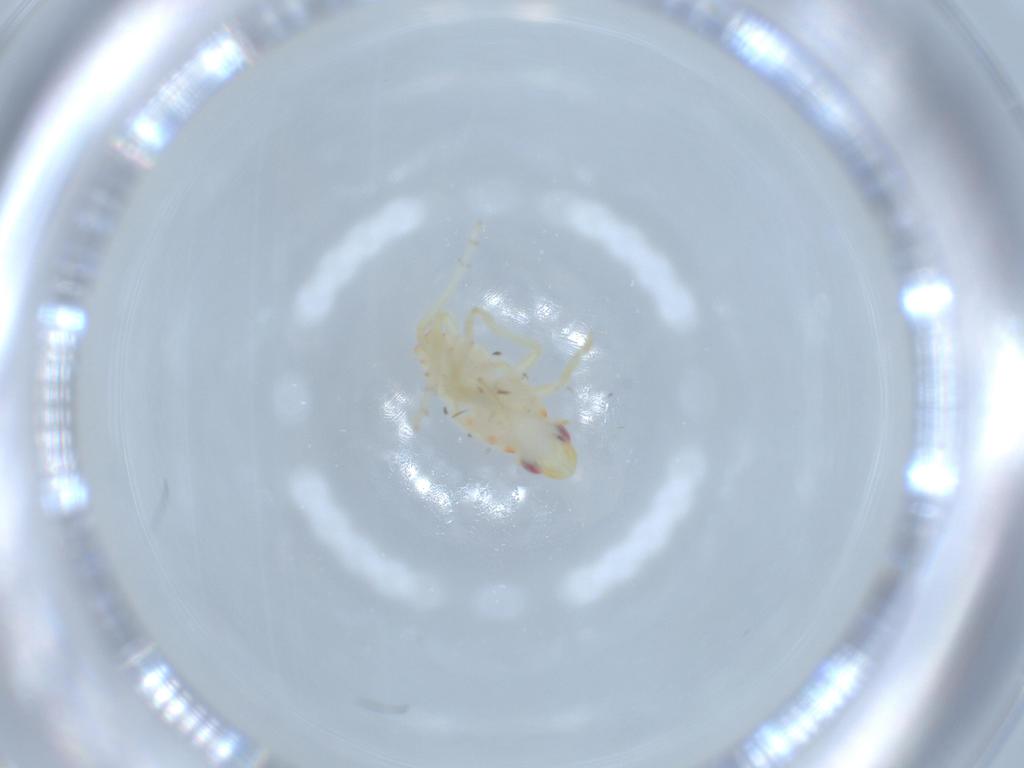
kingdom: Animalia
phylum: Arthropoda
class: Insecta
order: Hemiptera
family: Tropiduchidae
